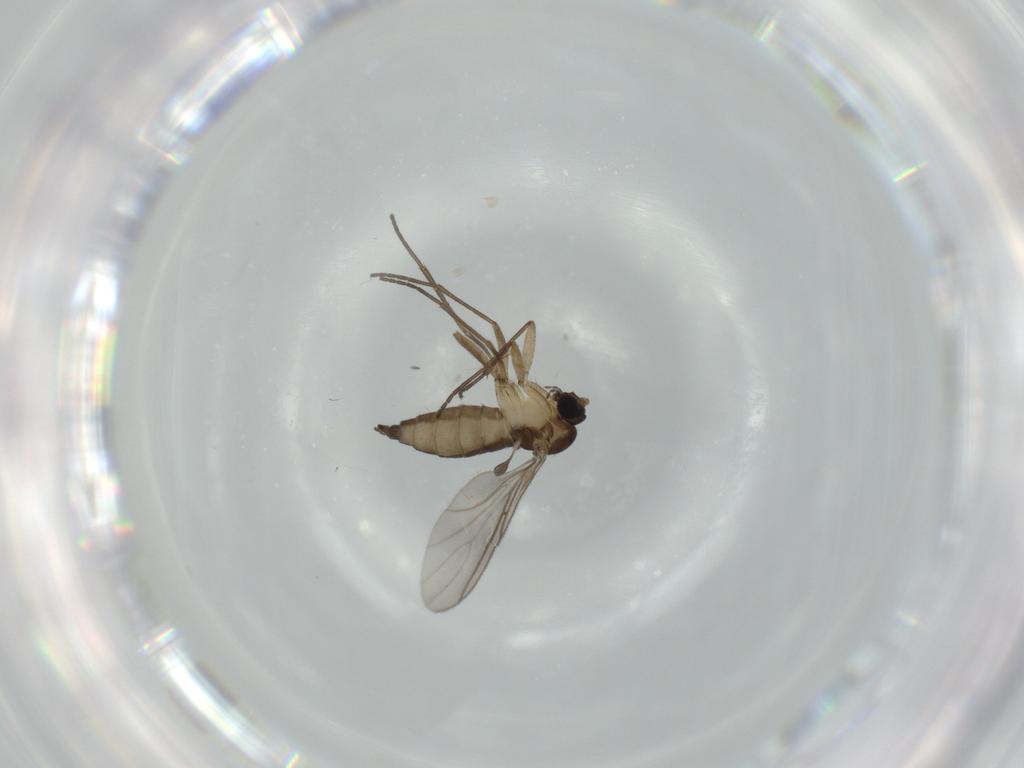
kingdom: Animalia
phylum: Arthropoda
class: Insecta
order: Diptera
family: Sciaridae
